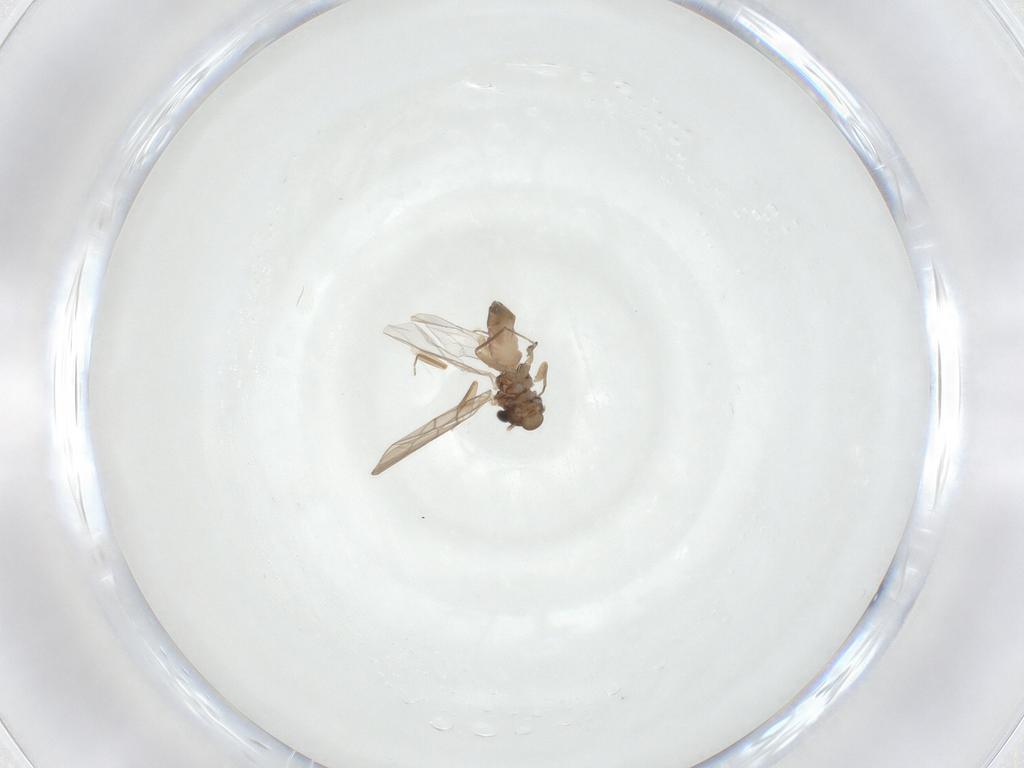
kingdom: Animalia
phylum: Arthropoda
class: Insecta
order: Psocodea
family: Lepidopsocidae
